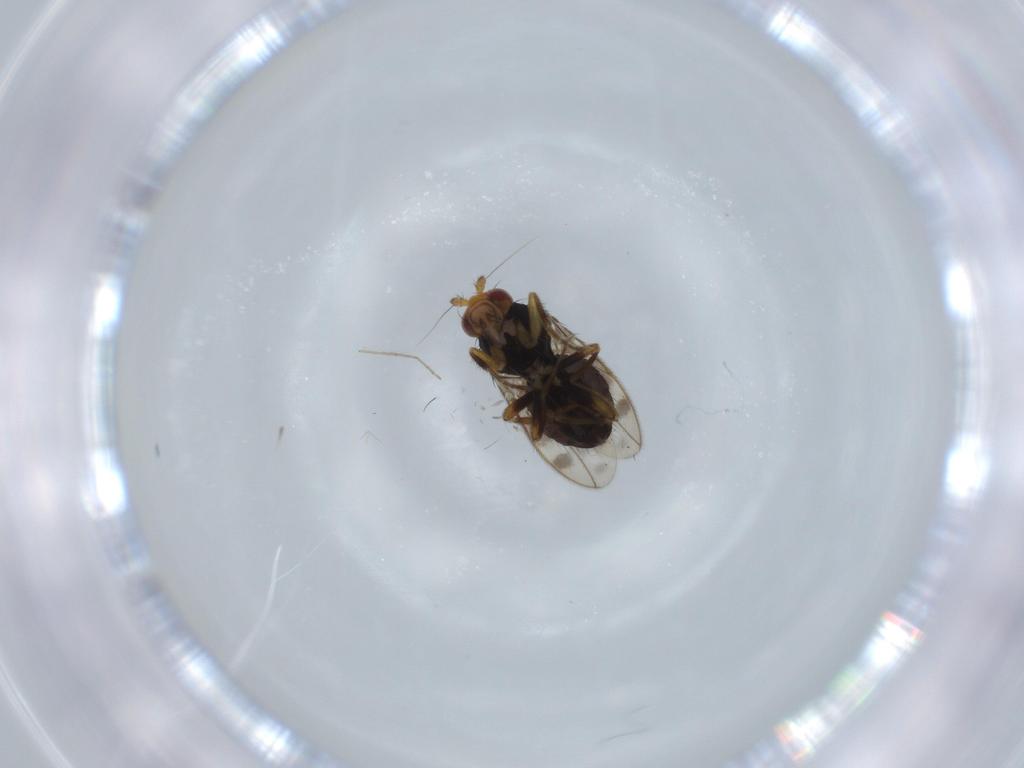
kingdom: Animalia
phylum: Arthropoda
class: Insecta
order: Diptera
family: Sphaeroceridae
